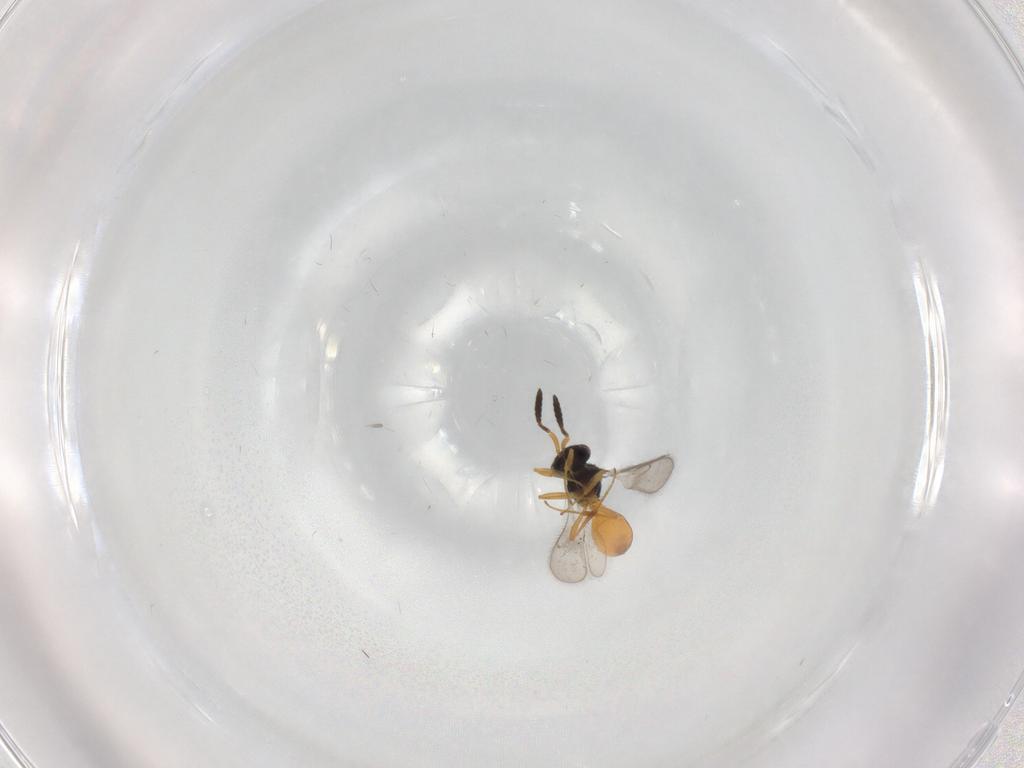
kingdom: Animalia
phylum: Arthropoda
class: Insecta
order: Hymenoptera
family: Scelionidae
